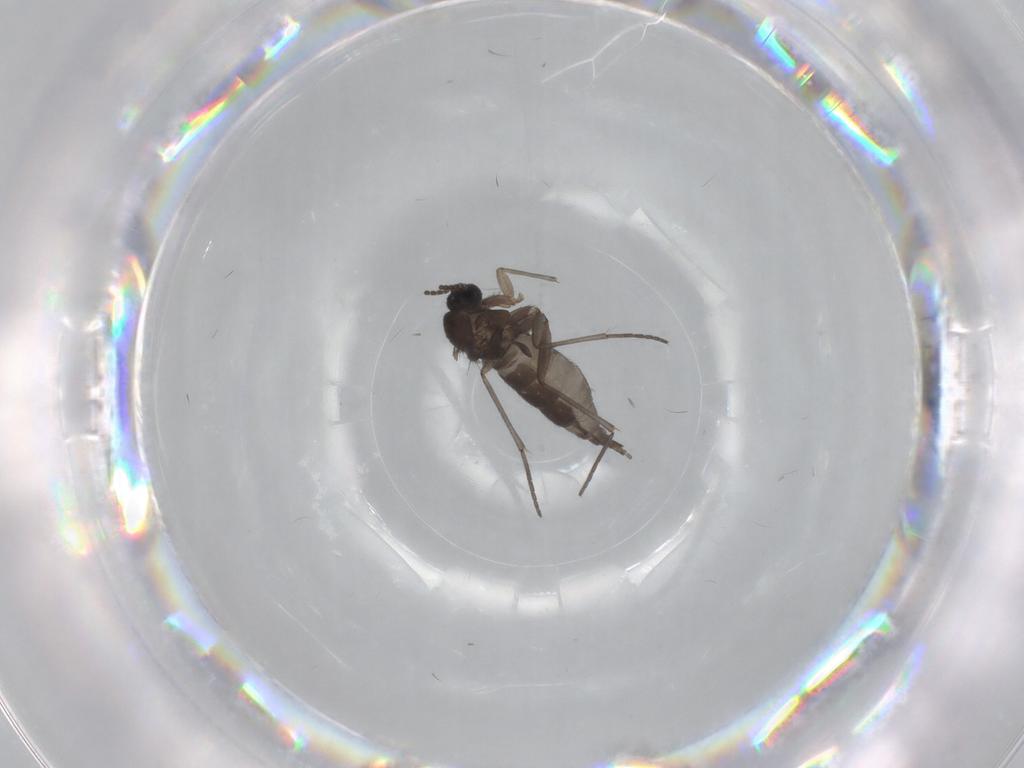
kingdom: Animalia
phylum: Arthropoda
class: Insecta
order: Diptera
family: Sciaridae
